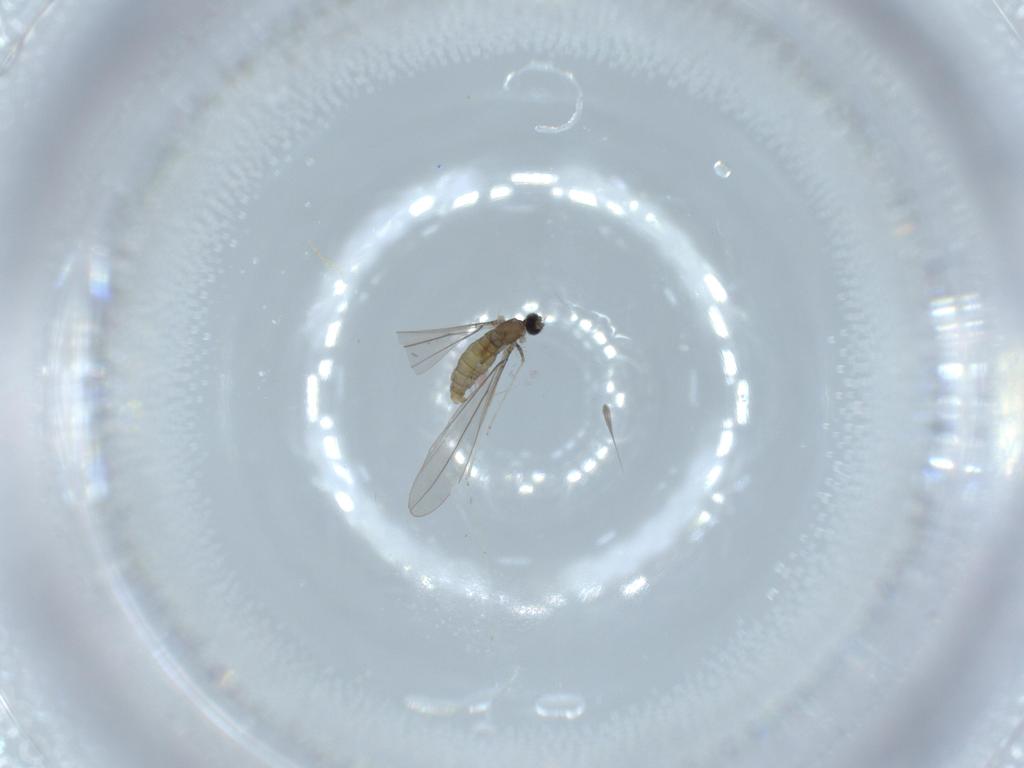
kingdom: Animalia
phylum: Arthropoda
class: Insecta
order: Diptera
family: Cecidomyiidae
